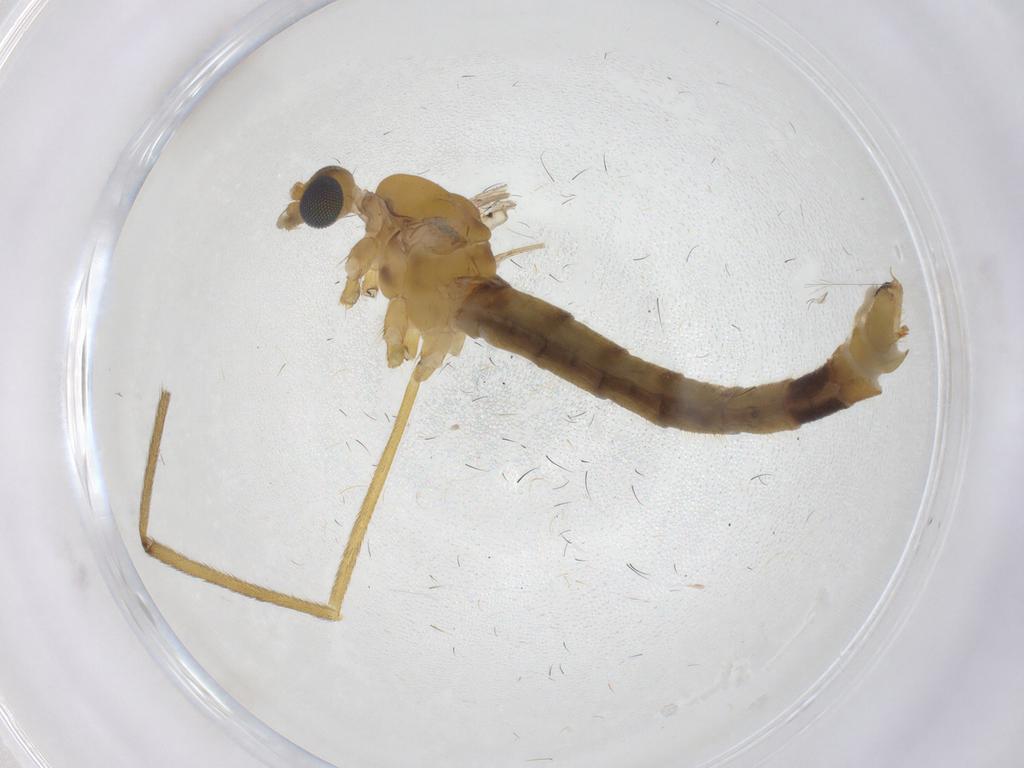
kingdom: Animalia
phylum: Arthropoda
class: Insecta
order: Diptera
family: Limoniidae
